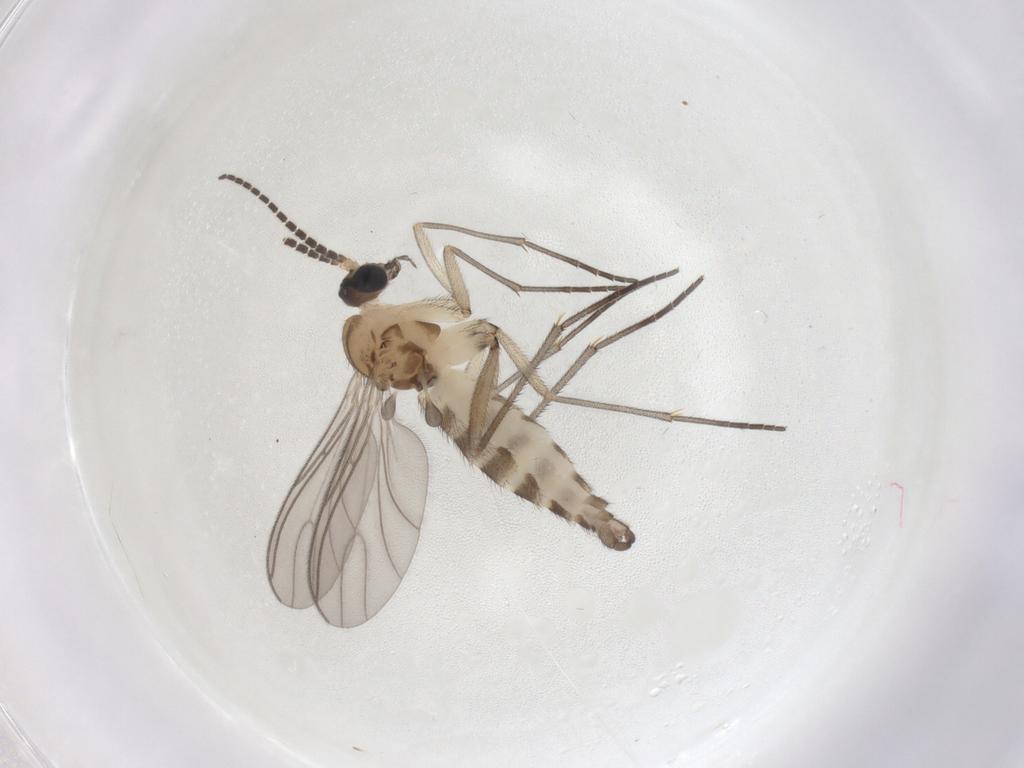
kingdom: Animalia
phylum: Arthropoda
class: Insecta
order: Diptera
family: Sciaridae
